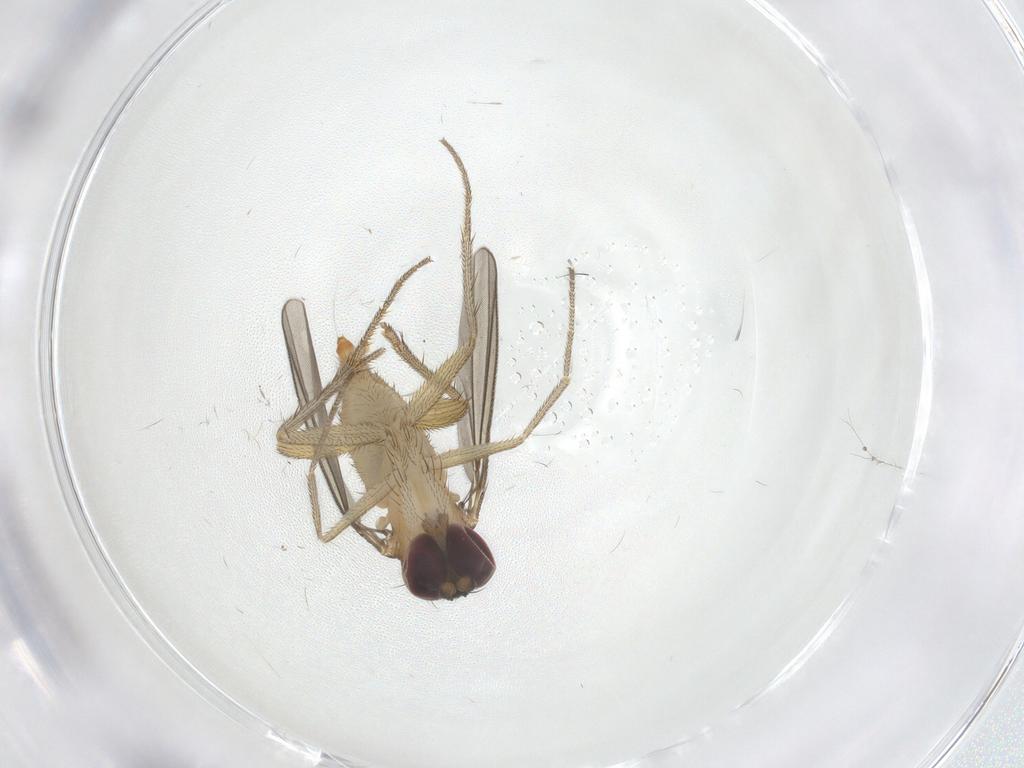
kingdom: Animalia
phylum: Arthropoda
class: Insecta
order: Diptera
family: Dolichopodidae
